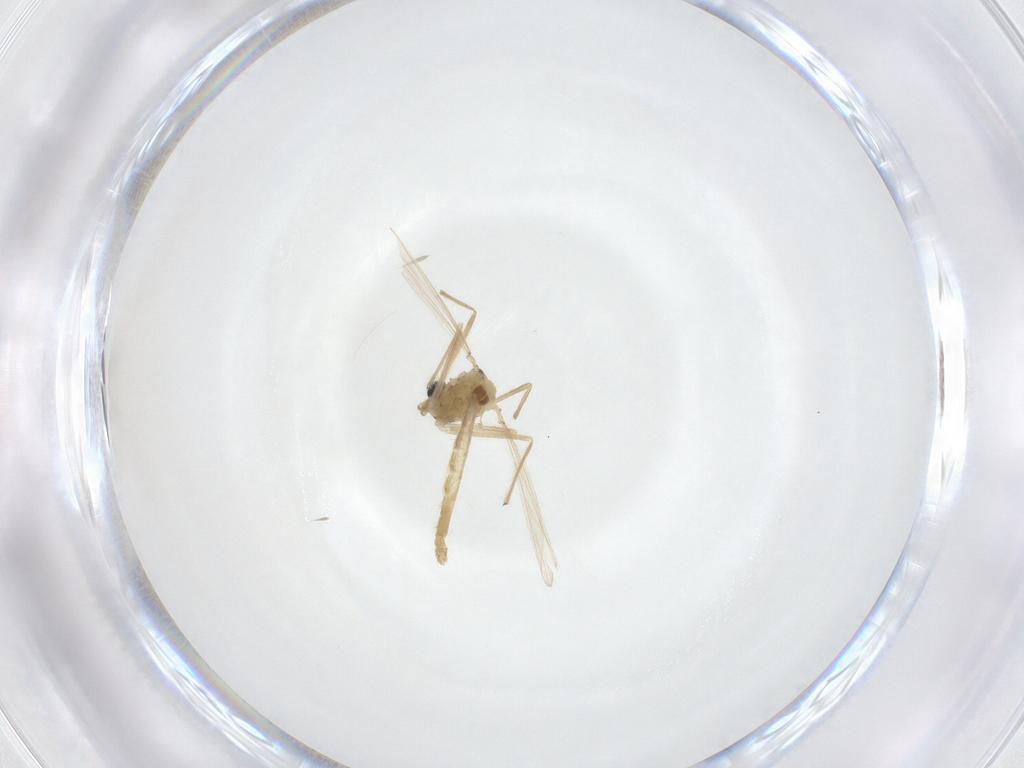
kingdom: Animalia
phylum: Arthropoda
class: Insecta
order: Diptera
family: Chironomidae
